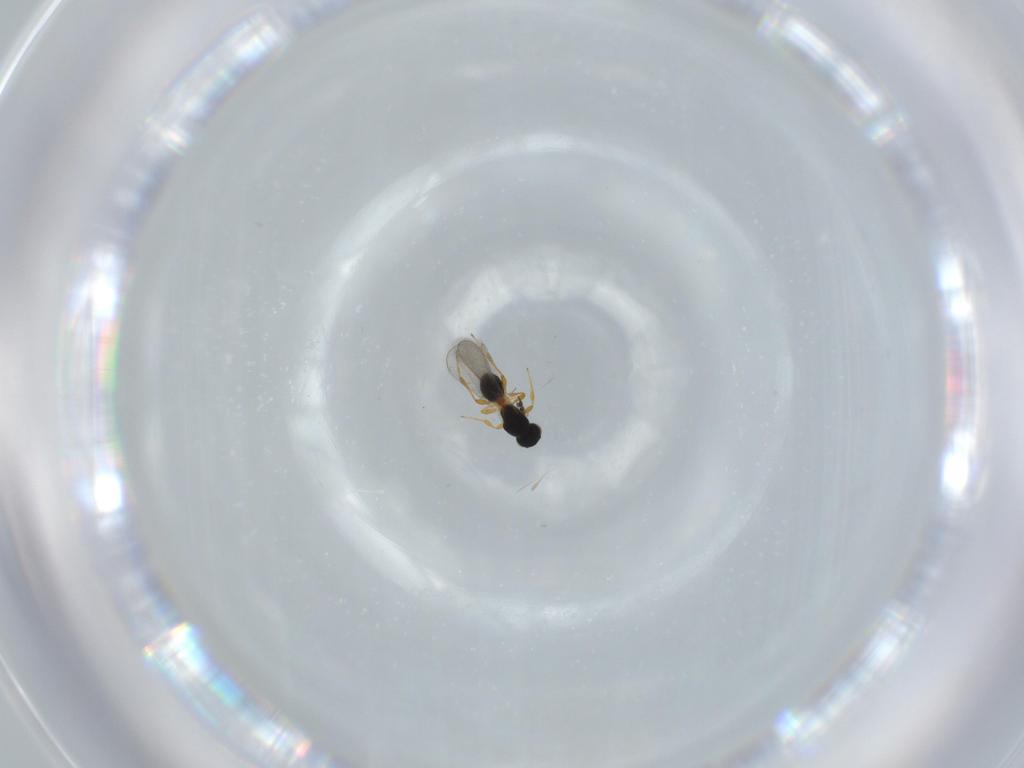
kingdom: Animalia
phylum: Arthropoda
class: Insecta
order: Hymenoptera
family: Platygastridae
